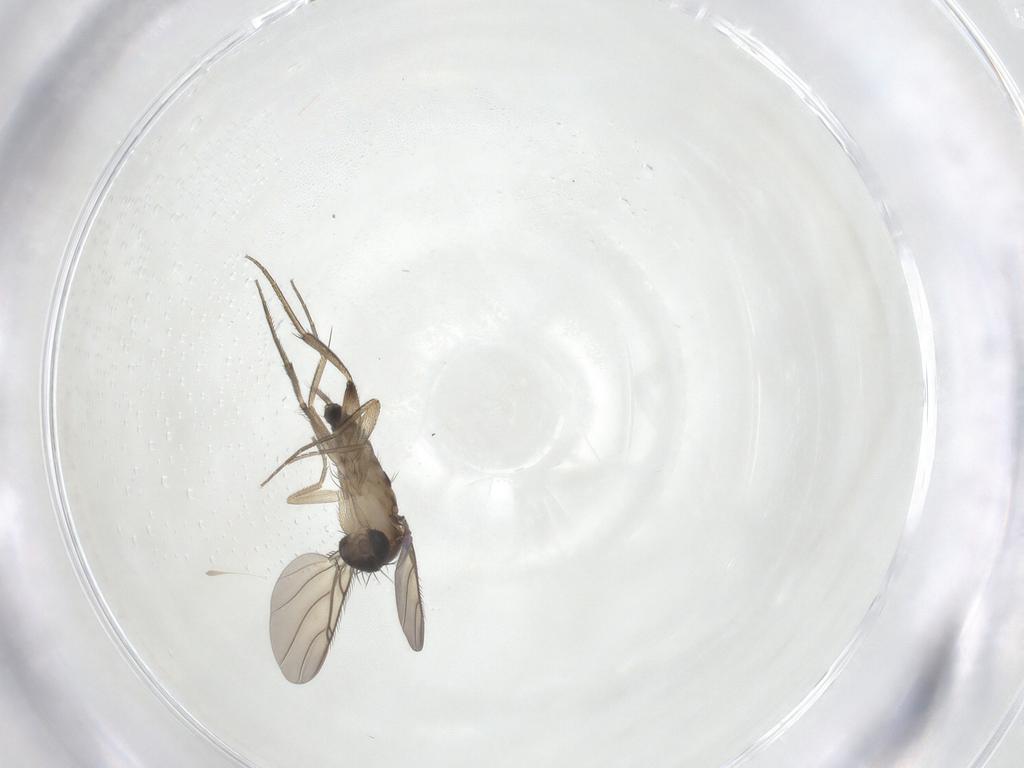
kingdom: Animalia
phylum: Arthropoda
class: Insecta
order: Diptera
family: Phoridae
